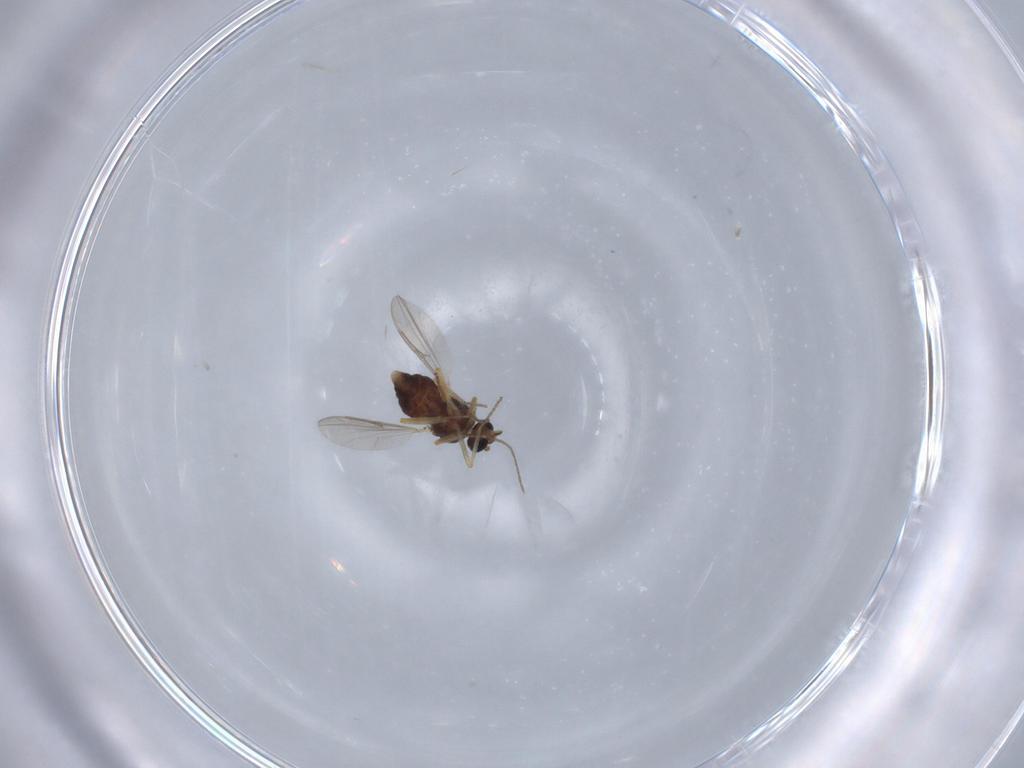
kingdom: Animalia
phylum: Arthropoda
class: Insecta
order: Diptera
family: Ceratopogonidae
